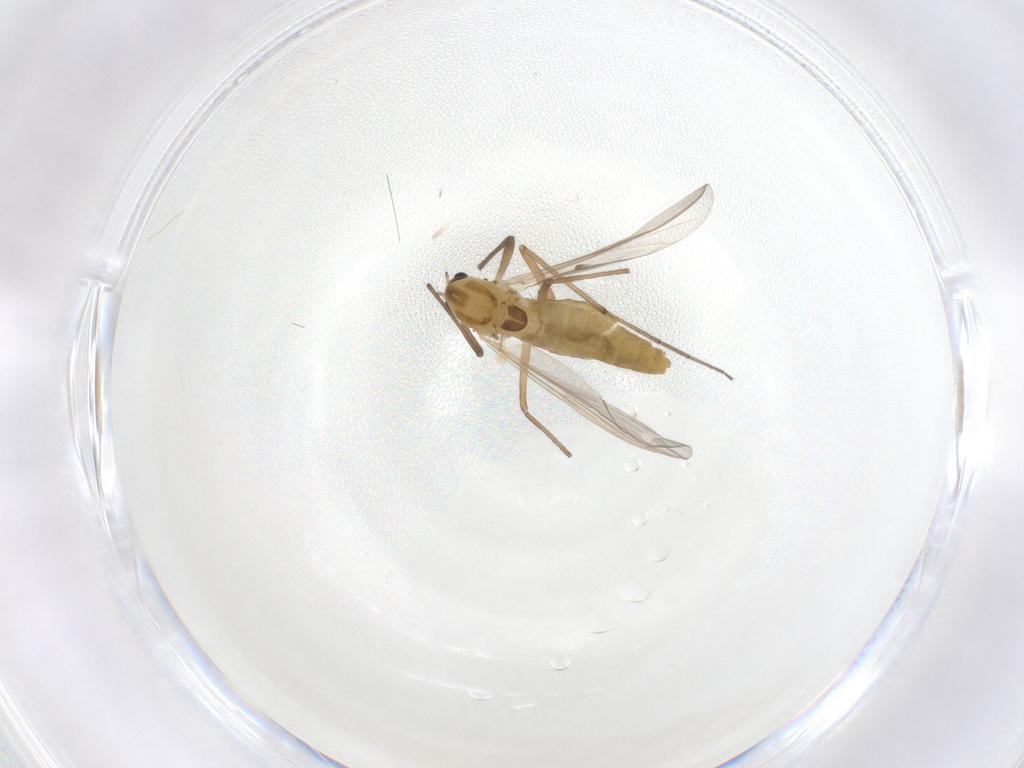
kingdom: Animalia
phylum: Arthropoda
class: Insecta
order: Diptera
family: Chironomidae
